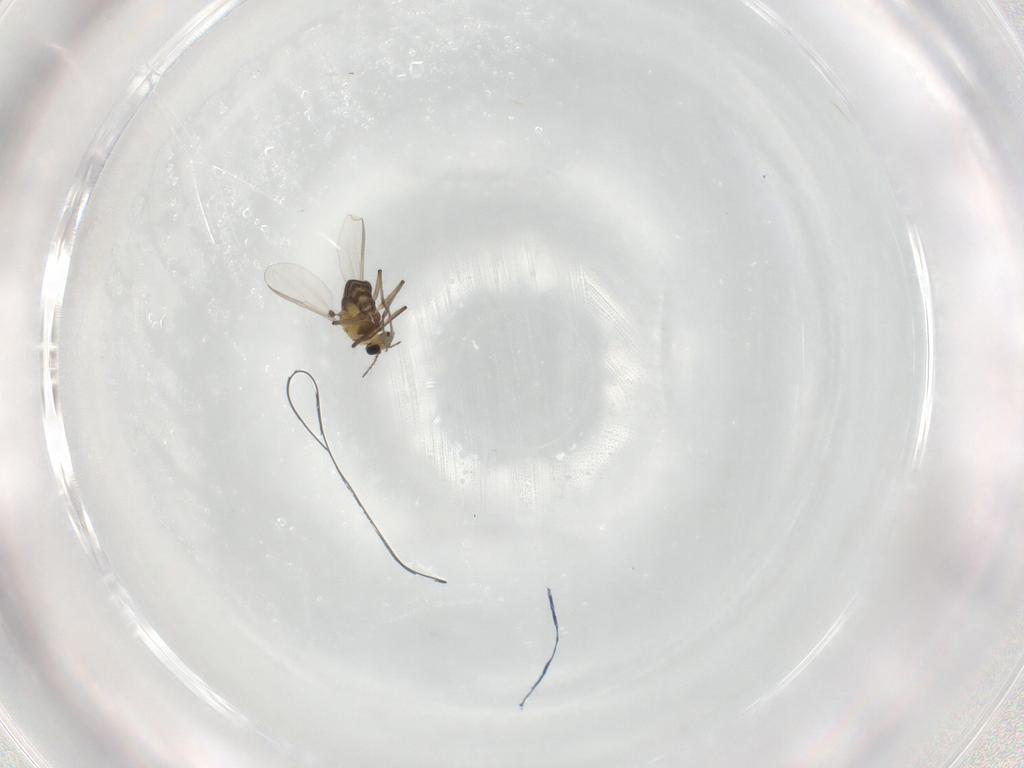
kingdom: Animalia
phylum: Arthropoda
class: Insecta
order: Diptera
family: Chironomidae
